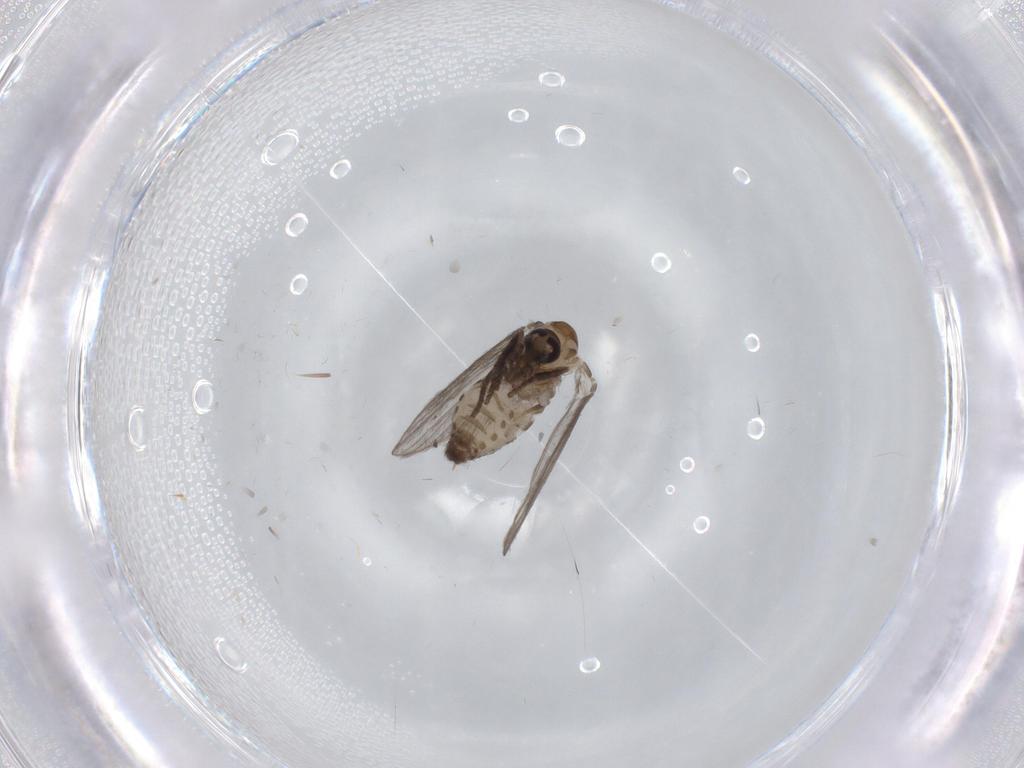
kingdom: Animalia
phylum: Arthropoda
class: Insecta
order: Diptera
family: Psychodidae
